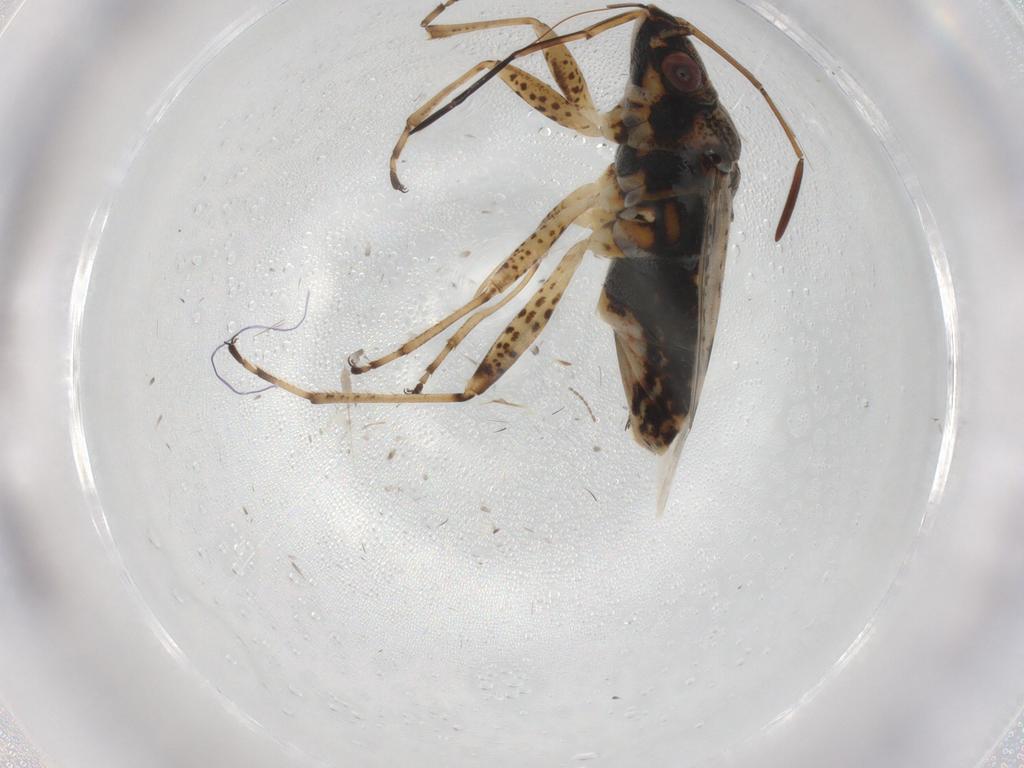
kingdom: Animalia
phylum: Arthropoda
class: Insecta
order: Hemiptera
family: Lygaeidae
